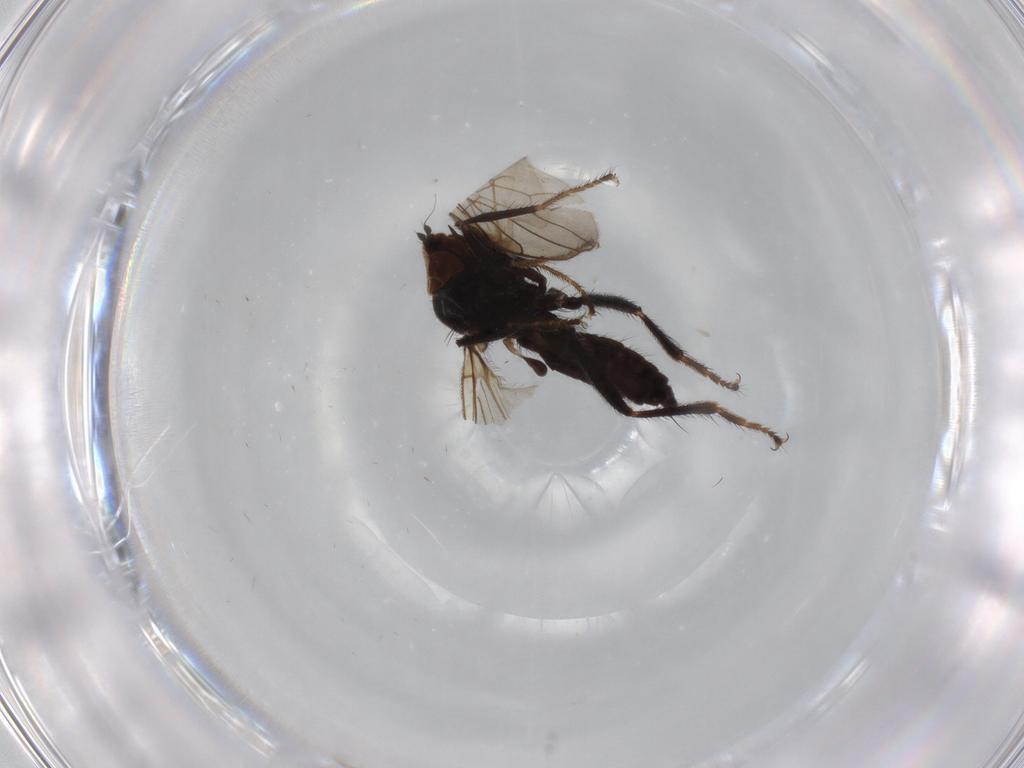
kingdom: Animalia
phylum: Arthropoda
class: Insecta
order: Diptera
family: Hybotidae
